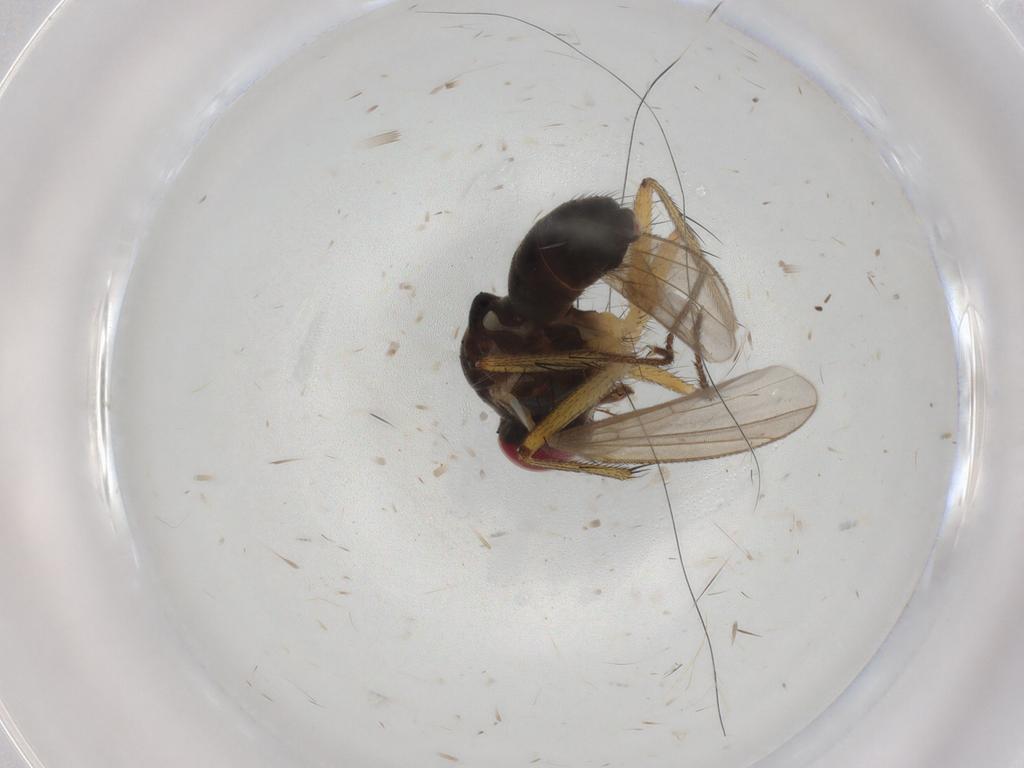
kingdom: Animalia
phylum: Arthropoda
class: Insecta
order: Diptera
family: Muscidae
